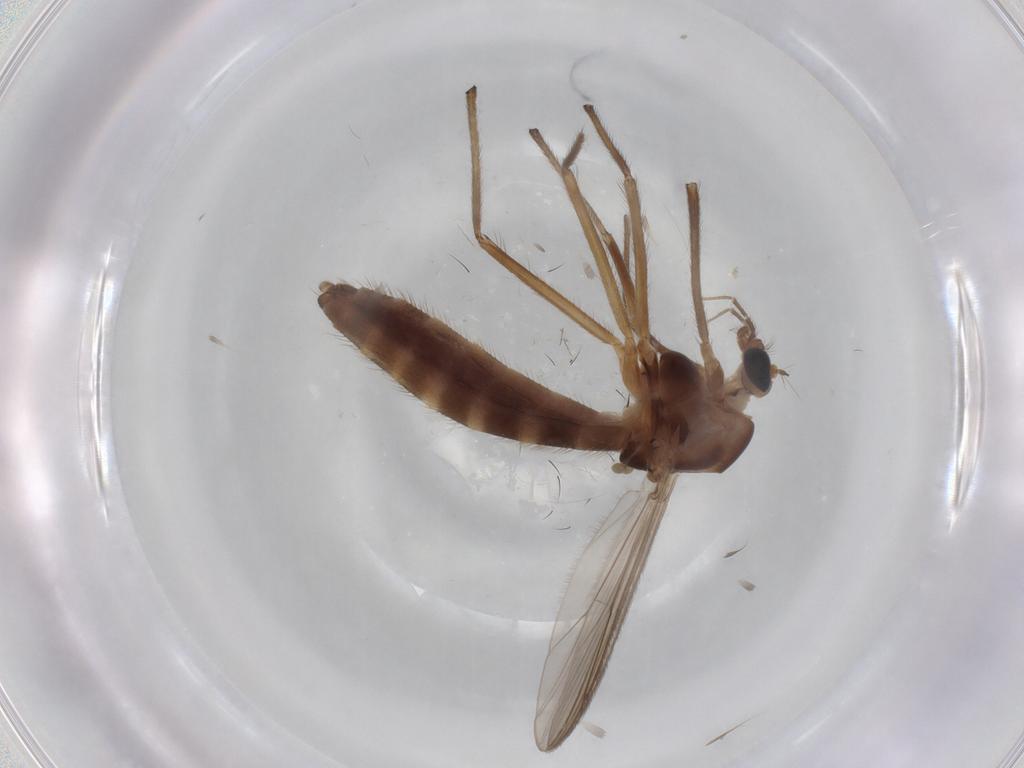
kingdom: Animalia
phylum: Arthropoda
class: Insecta
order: Diptera
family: Chironomidae
